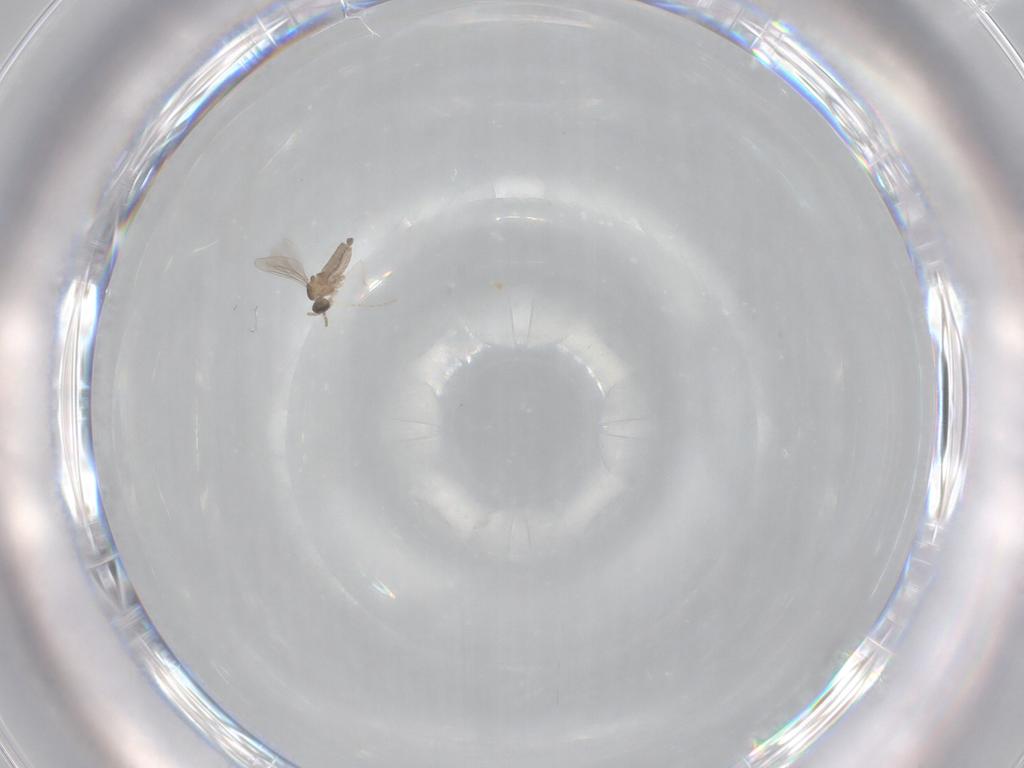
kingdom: Animalia
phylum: Arthropoda
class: Insecta
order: Diptera
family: Cecidomyiidae
